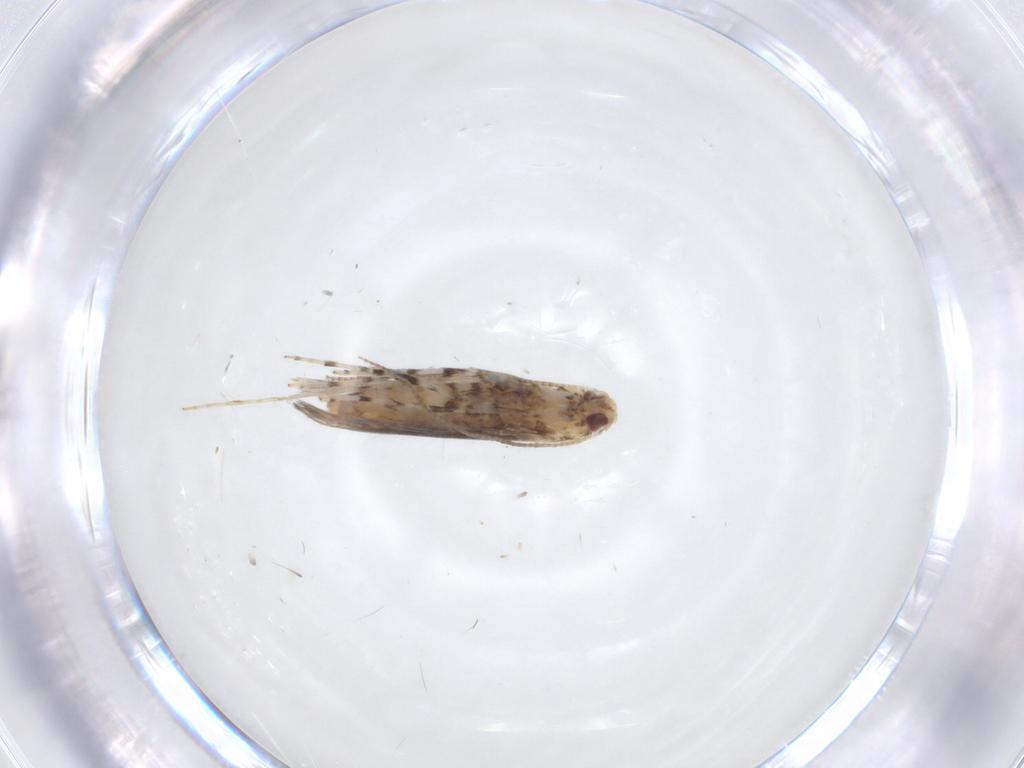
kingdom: Animalia
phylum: Arthropoda
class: Insecta
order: Lepidoptera
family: Gracillariidae
